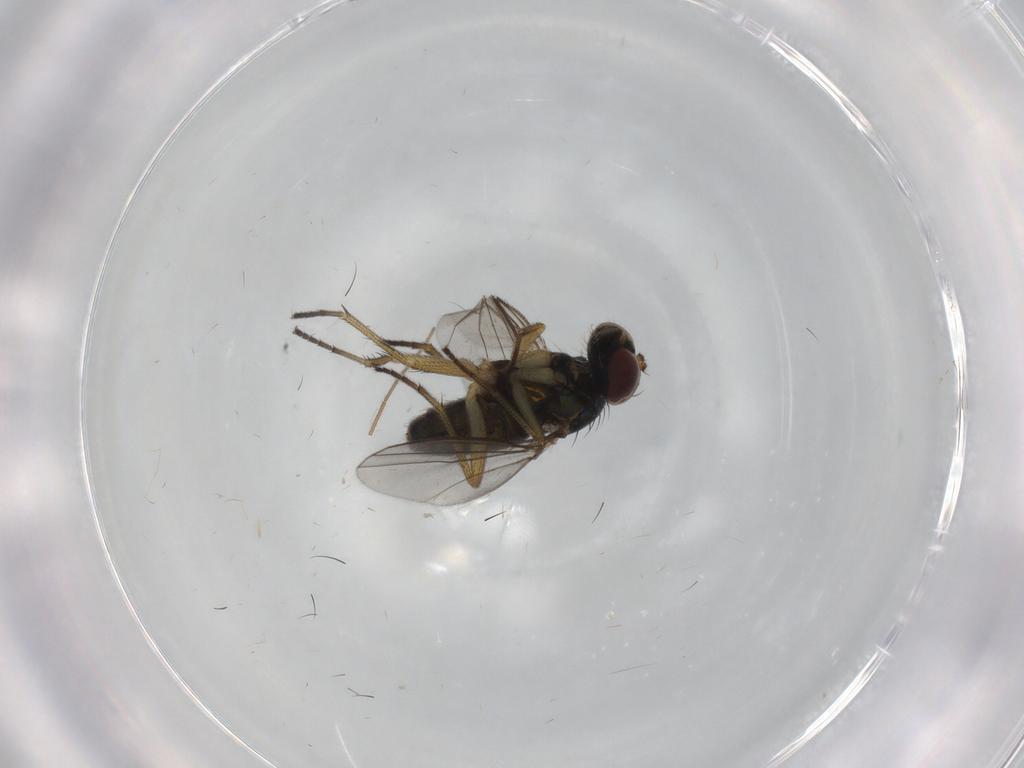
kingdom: Animalia
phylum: Arthropoda
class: Insecta
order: Diptera
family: Dolichopodidae
